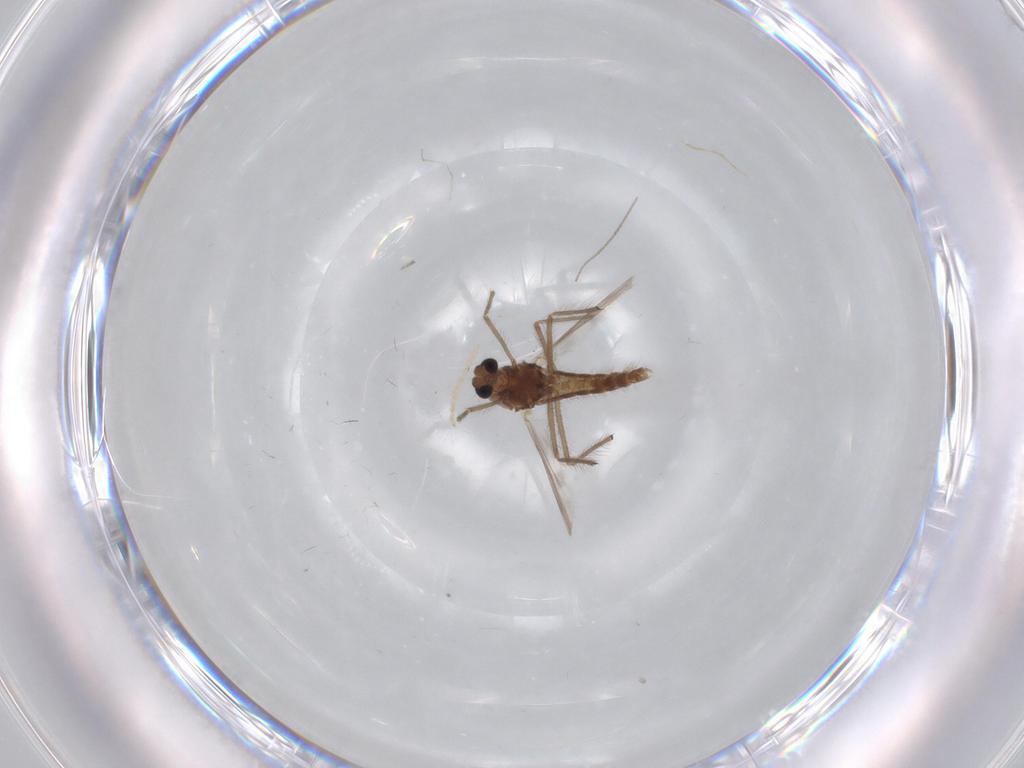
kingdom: Animalia
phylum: Arthropoda
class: Insecta
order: Diptera
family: Chironomidae
